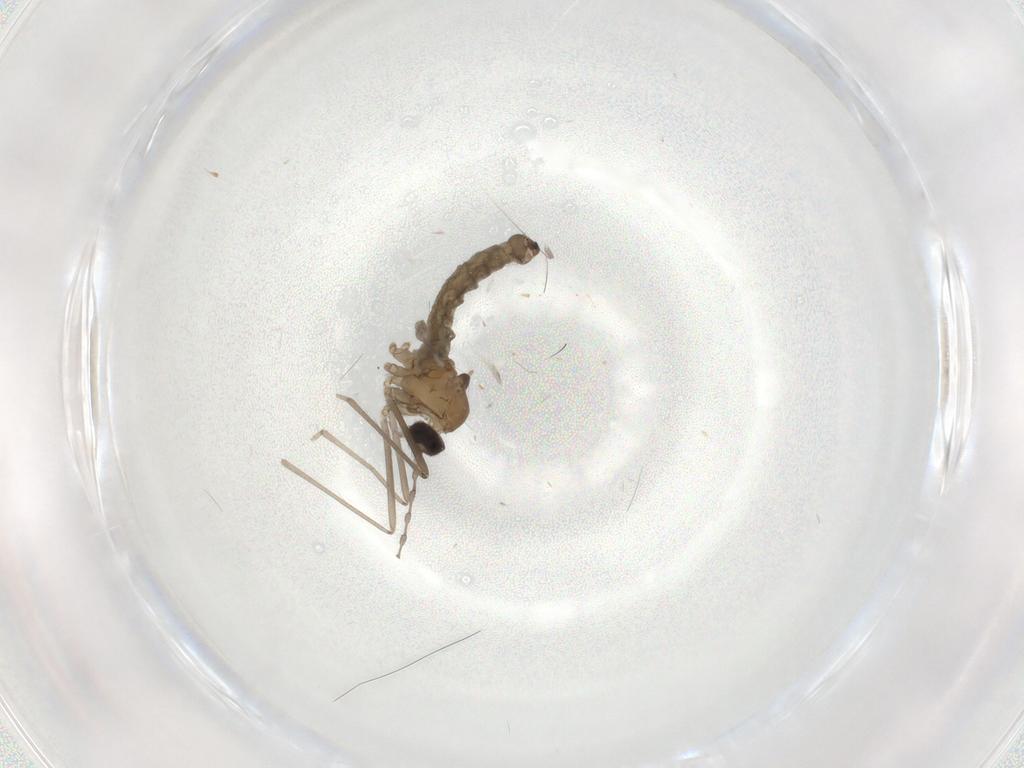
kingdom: Animalia
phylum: Arthropoda
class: Insecta
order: Diptera
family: Cecidomyiidae
